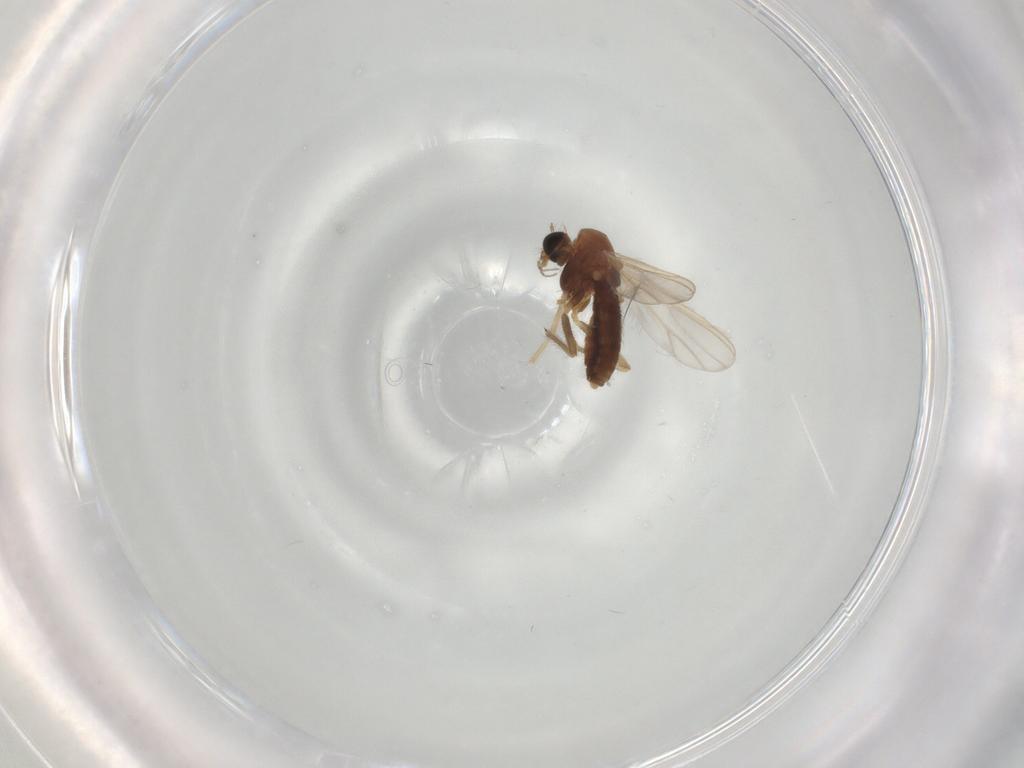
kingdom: Animalia
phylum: Arthropoda
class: Insecta
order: Diptera
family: Chironomidae
